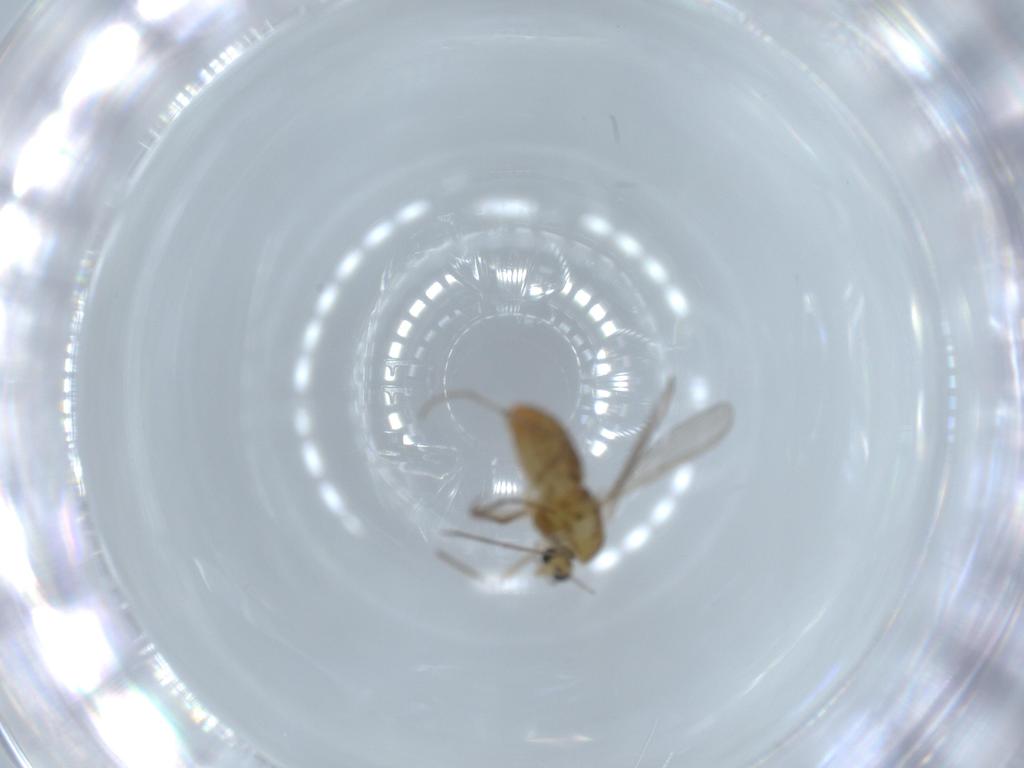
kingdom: Animalia
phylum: Arthropoda
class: Insecta
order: Diptera
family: Chironomidae
